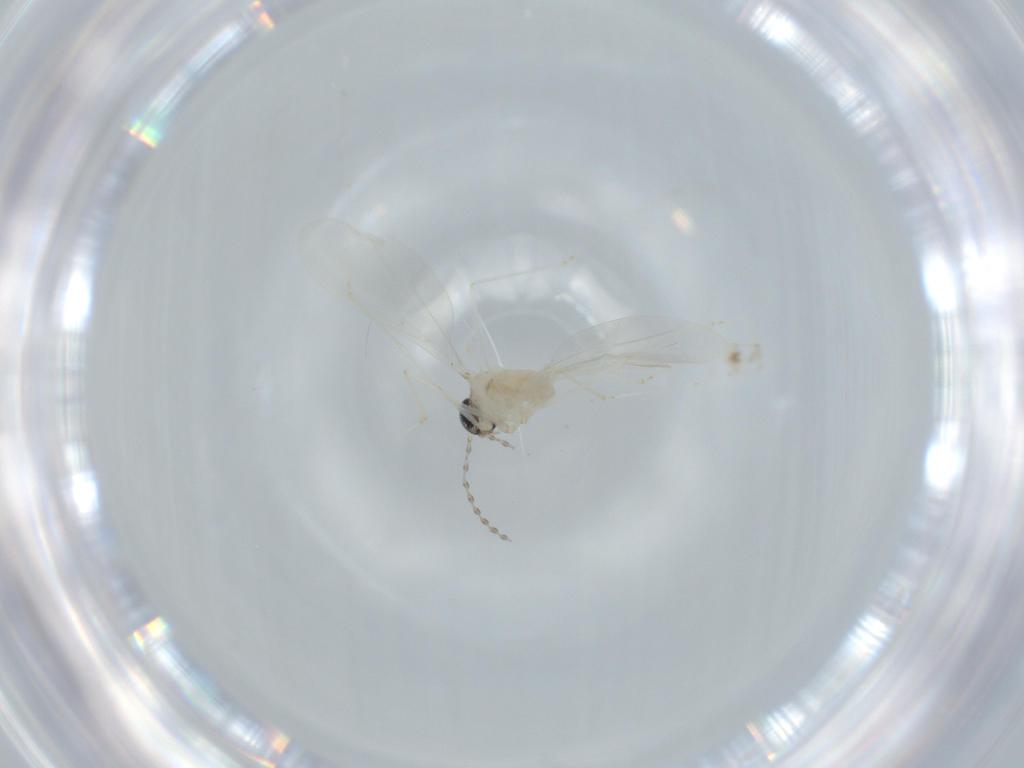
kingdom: Animalia
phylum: Arthropoda
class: Insecta
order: Diptera
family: Cecidomyiidae
